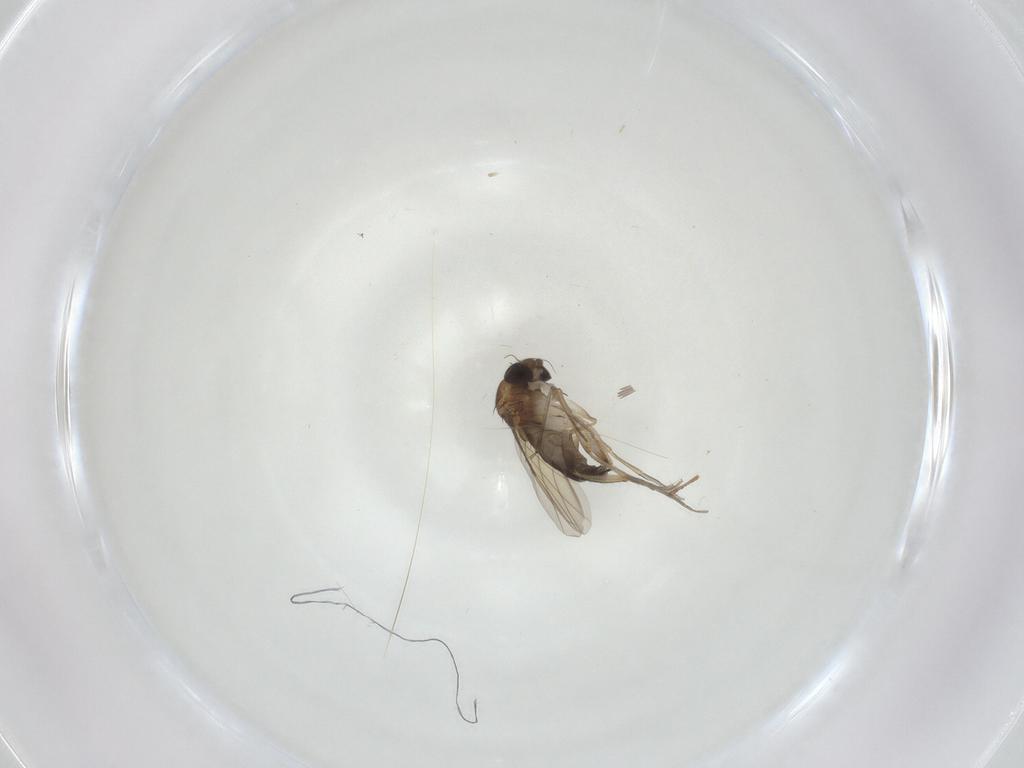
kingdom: Animalia
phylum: Arthropoda
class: Insecta
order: Diptera
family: Phoridae
